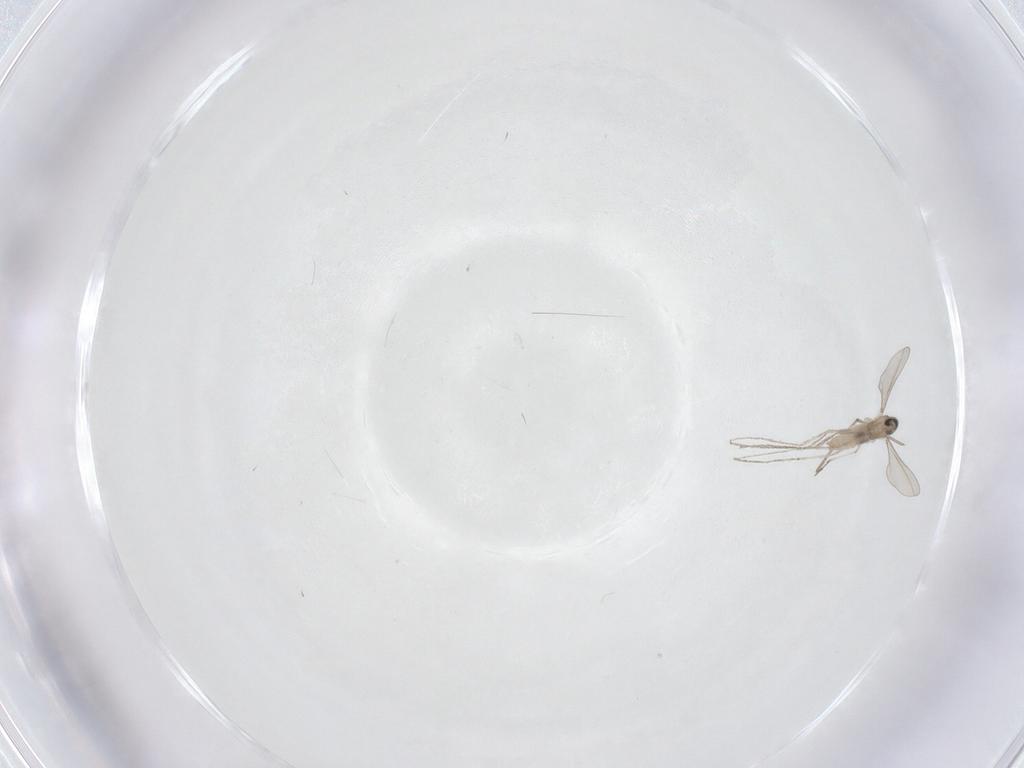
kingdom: Animalia
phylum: Arthropoda
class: Insecta
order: Diptera
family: Cecidomyiidae
